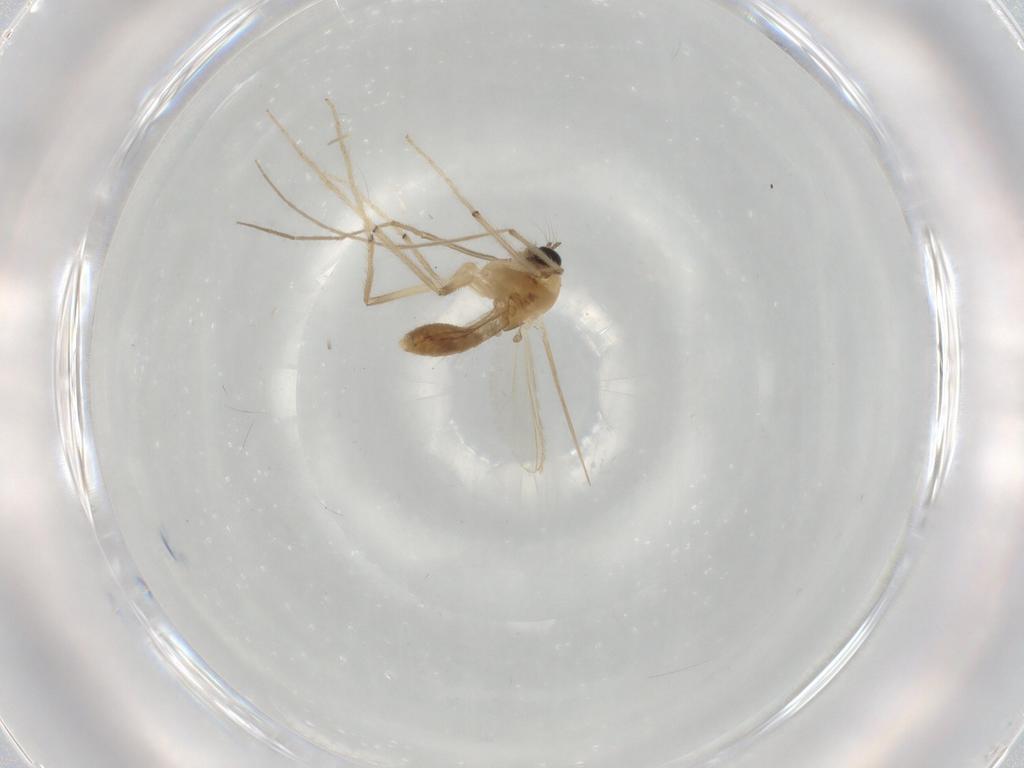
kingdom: Animalia
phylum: Arthropoda
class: Insecta
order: Diptera
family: Chironomidae
